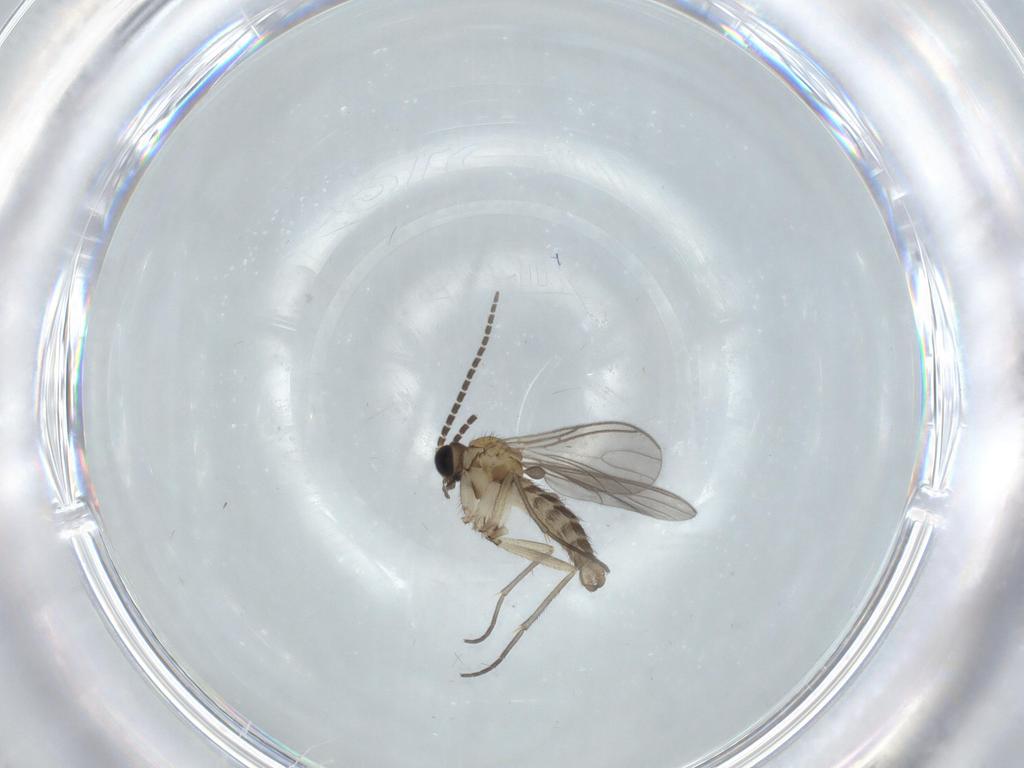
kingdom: Animalia
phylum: Arthropoda
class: Insecta
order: Diptera
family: Sciaridae
